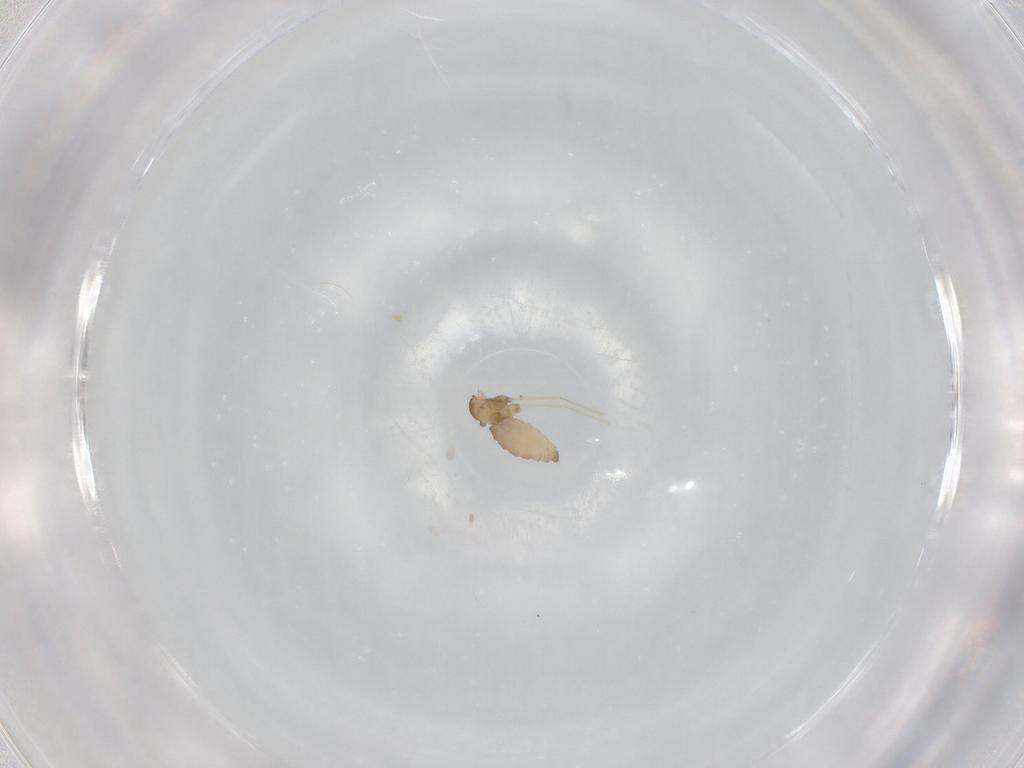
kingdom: Animalia
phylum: Arthropoda
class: Insecta
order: Diptera
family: Cecidomyiidae
